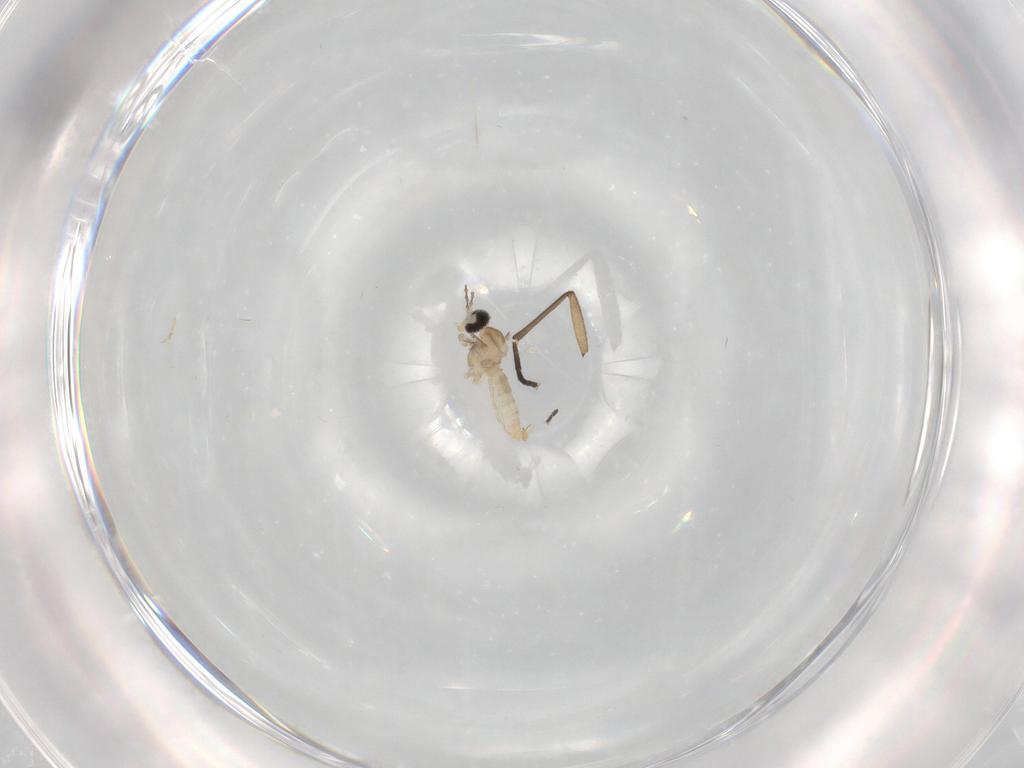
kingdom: Animalia
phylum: Arthropoda
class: Insecta
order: Diptera
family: Cecidomyiidae
